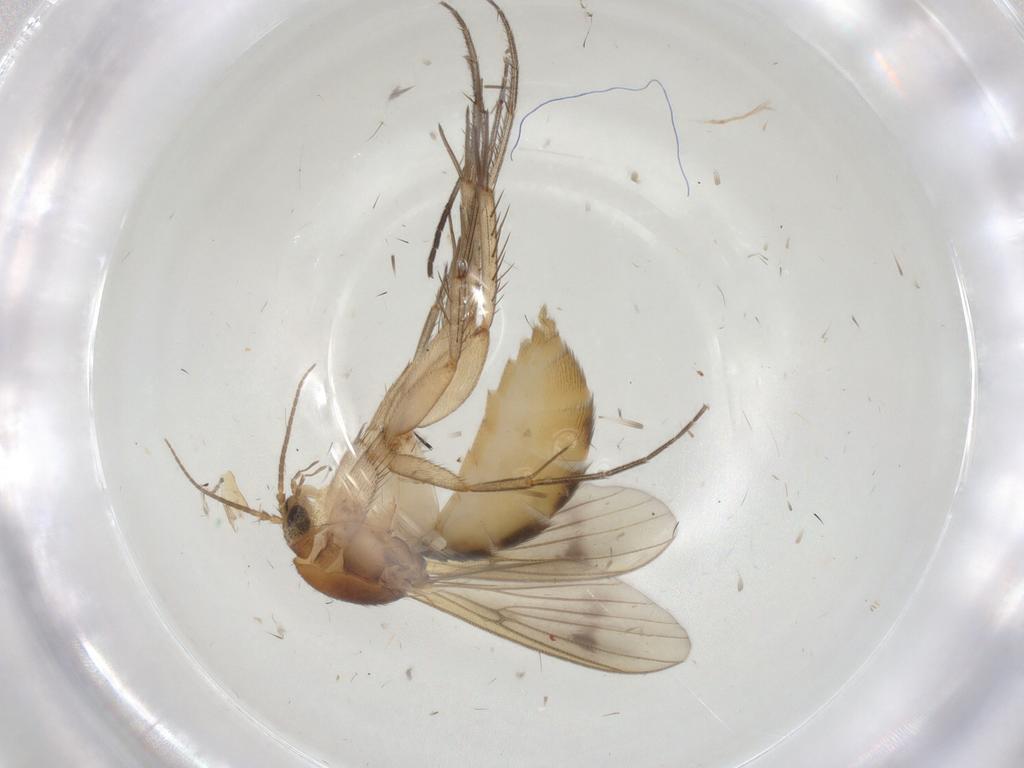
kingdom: Animalia
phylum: Arthropoda
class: Insecta
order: Diptera
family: Mycetophilidae
